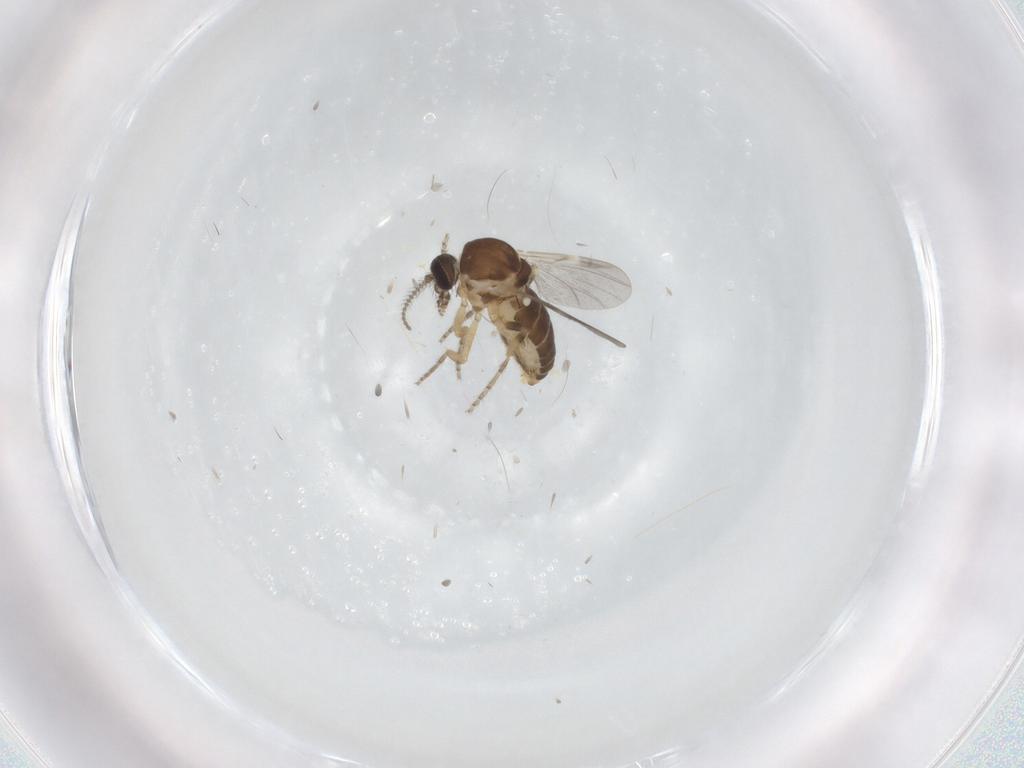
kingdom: Animalia
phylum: Arthropoda
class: Insecta
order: Diptera
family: Ceratopogonidae
